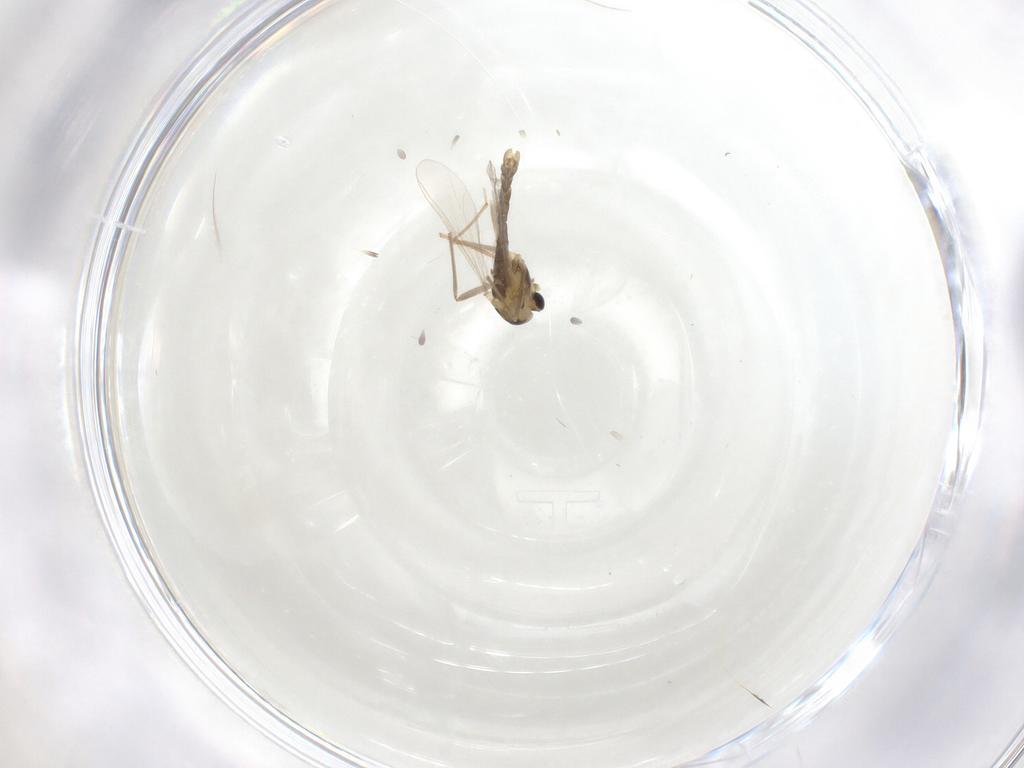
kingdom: Animalia
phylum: Arthropoda
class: Insecta
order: Diptera
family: Chironomidae
